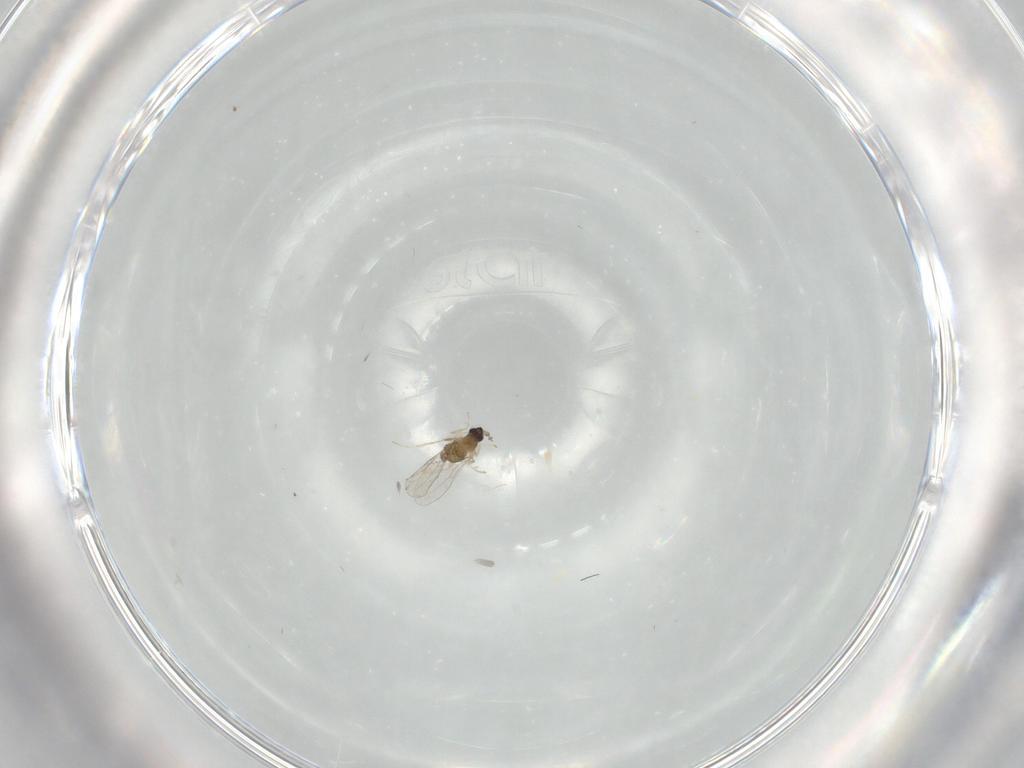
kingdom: Animalia
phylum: Arthropoda
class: Insecta
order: Diptera
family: Cecidomyiidae
